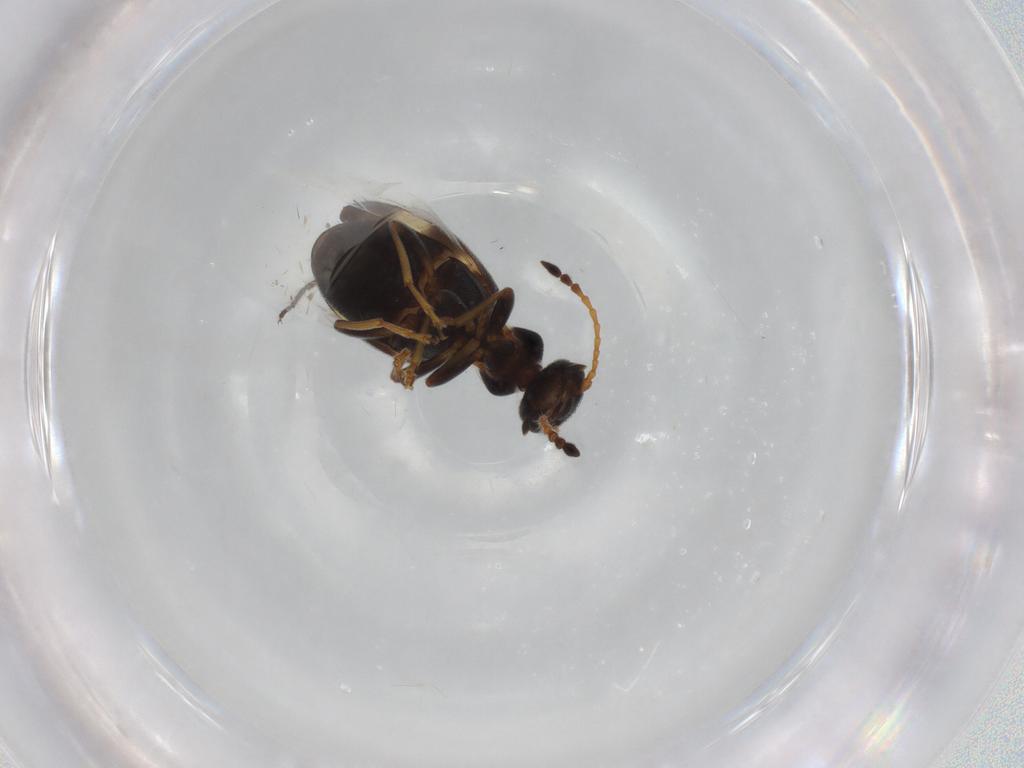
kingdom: Animalia
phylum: Arthropoda
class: Insecta
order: Coleoptera
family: Anthicidae
